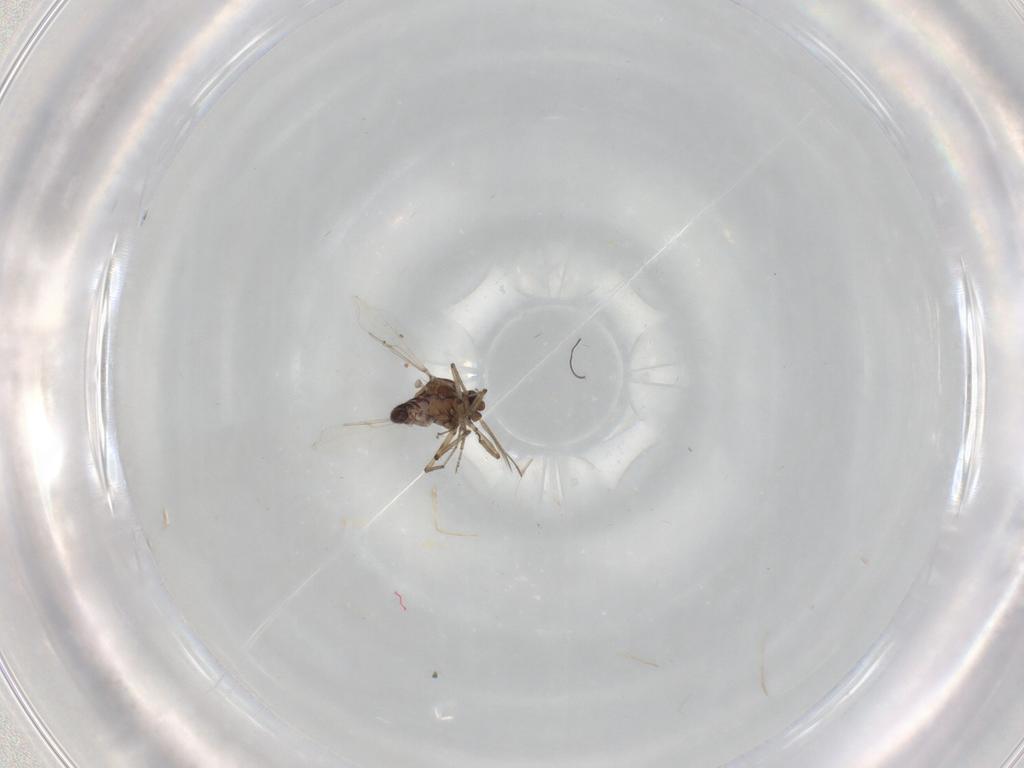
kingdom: Animalia
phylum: Arthropoda
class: Insecta
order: Diptera
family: Ceratopogonidae
